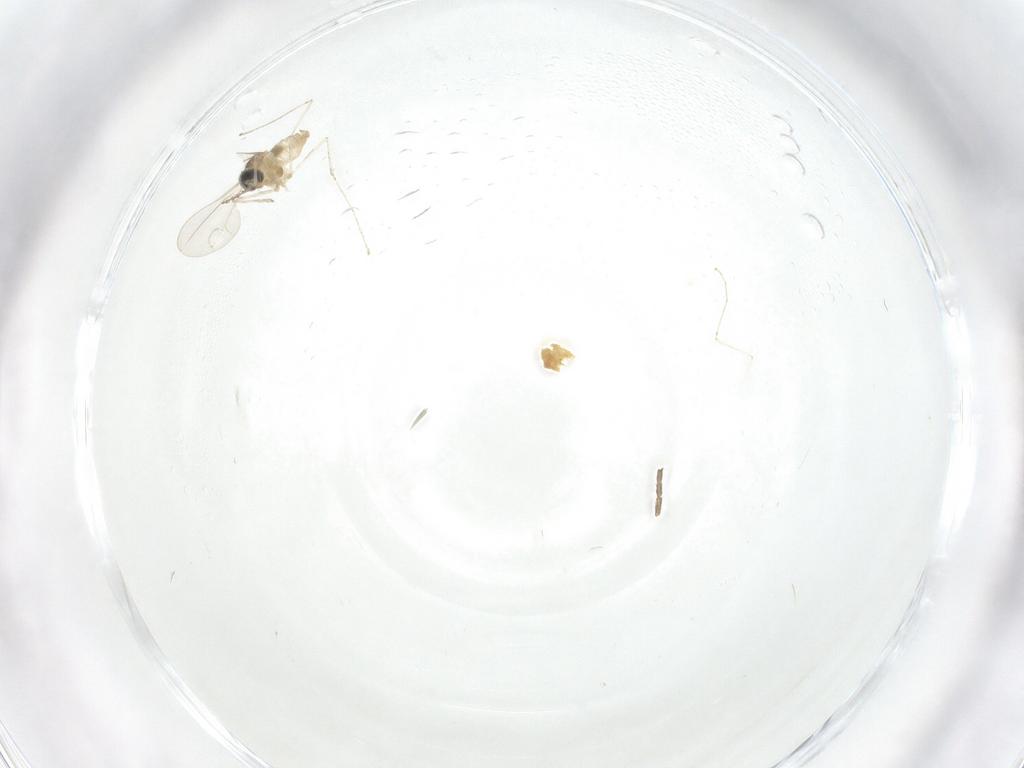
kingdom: Animalia
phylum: Arthropoda
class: Insecta
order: Diptera
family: Cecidomyiidae
